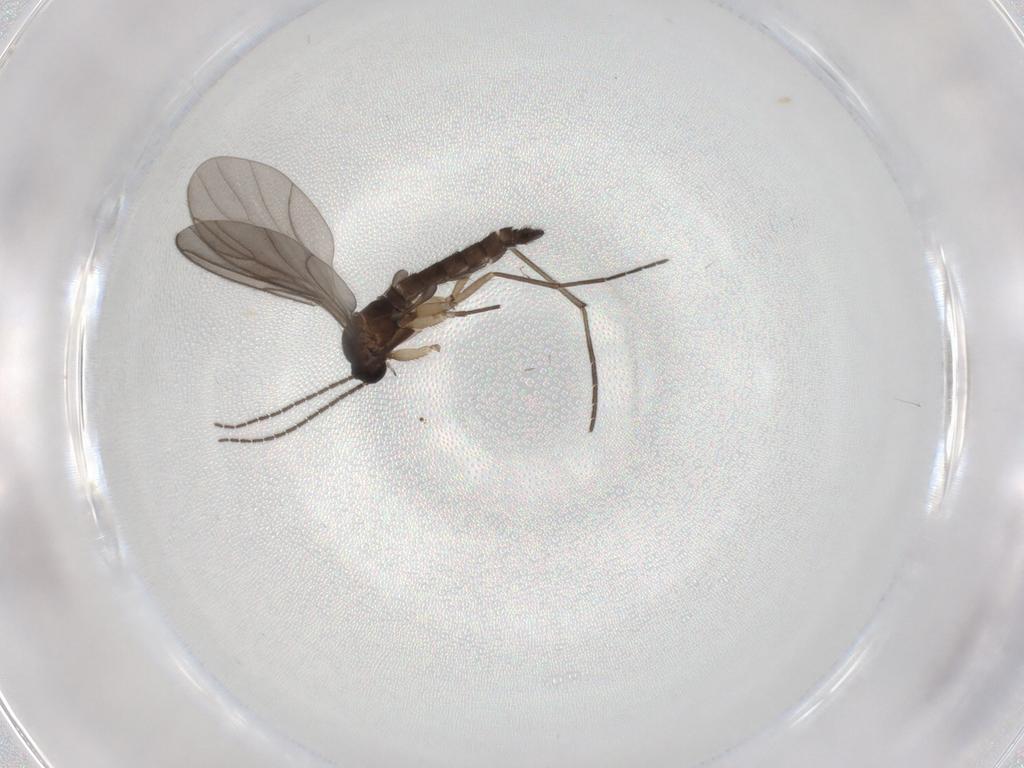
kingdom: Animalia
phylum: Arthropoda
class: Insecta
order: Diptera
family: Sciaridae
